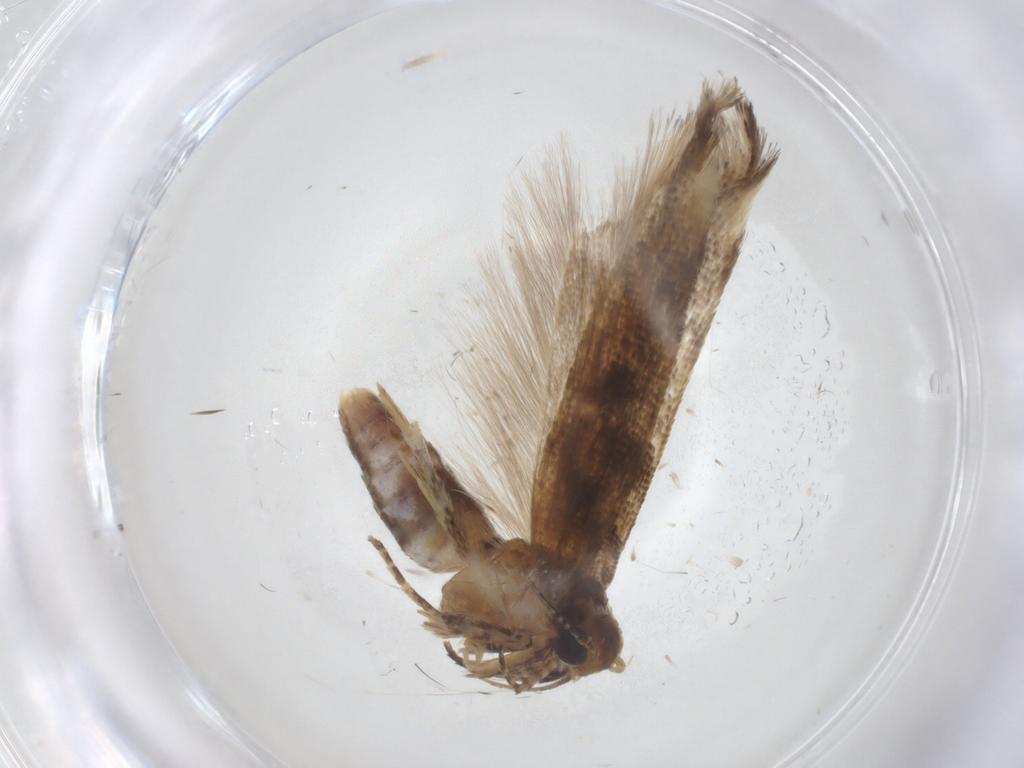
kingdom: Animalia
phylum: Arthropoda
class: Insecta
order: Lepidoptera
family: Gelechiidae
